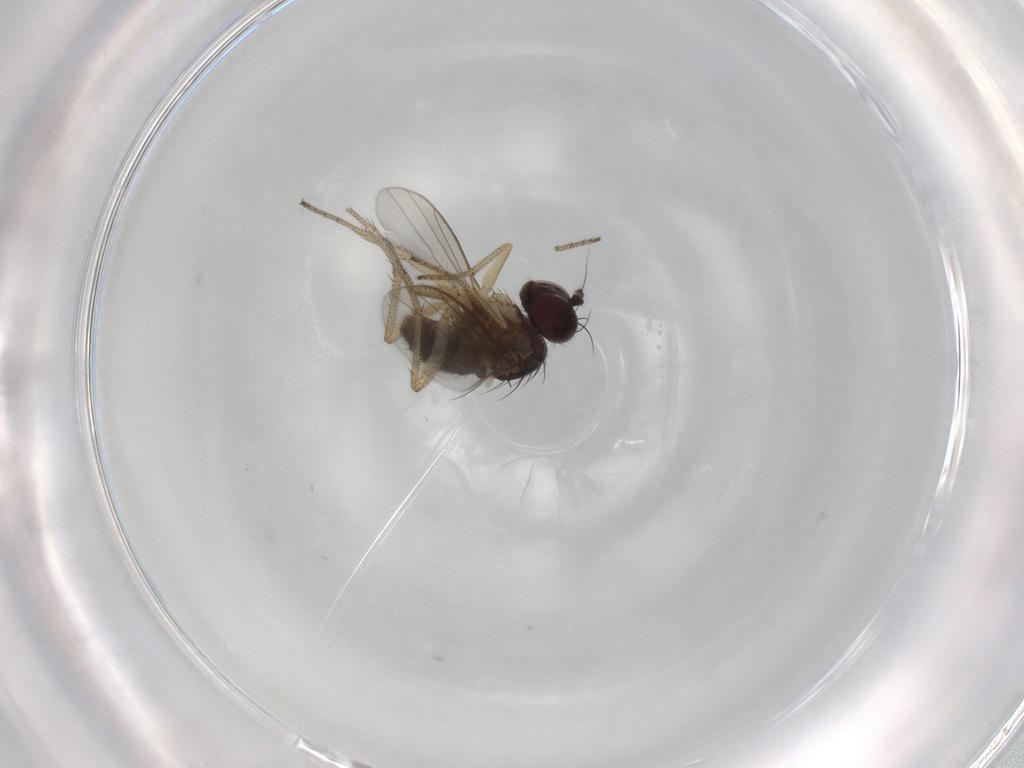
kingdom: Animalia
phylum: Arthropoda
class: Insecta
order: Diptera
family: Dolichopodidae
